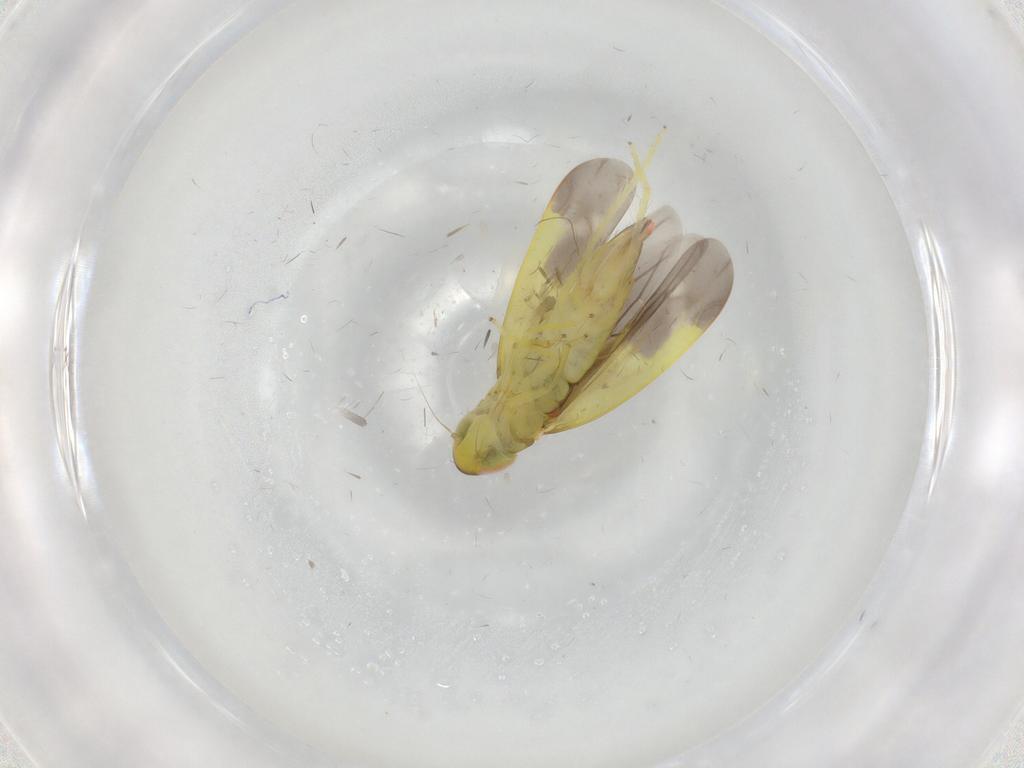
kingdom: Animalia
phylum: Arthropoda
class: Insecta
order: Hemiptera
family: Cicadellidae
